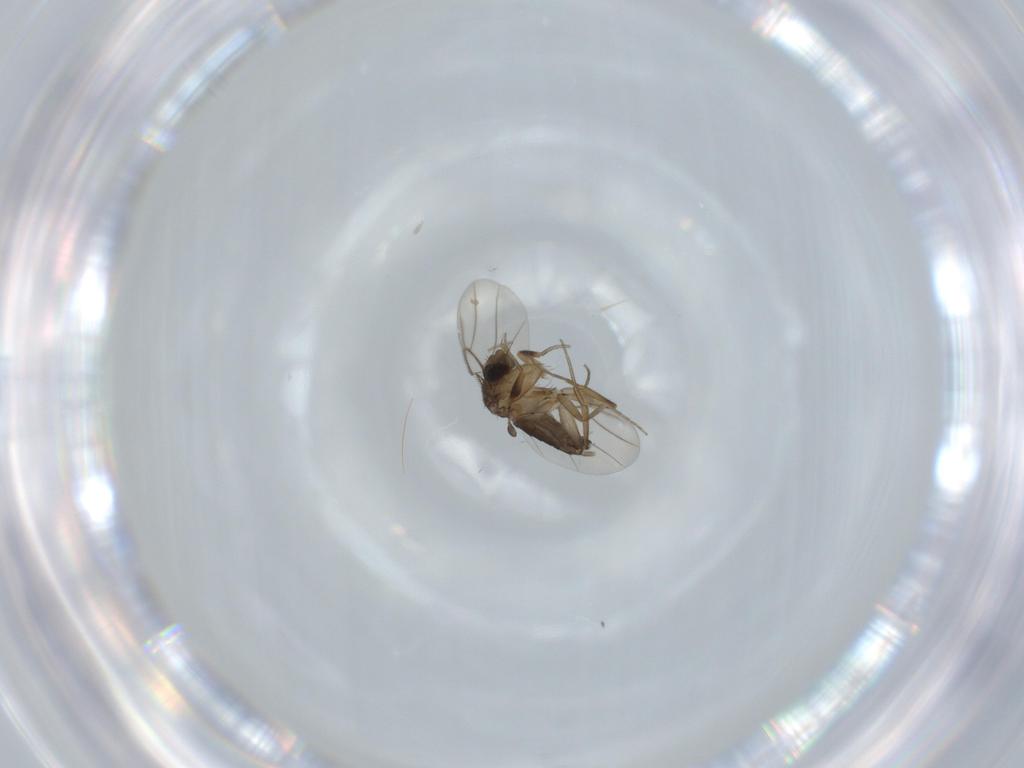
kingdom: Animalia
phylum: Arthropoda
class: Insecta
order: Diptera
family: Phoridae
